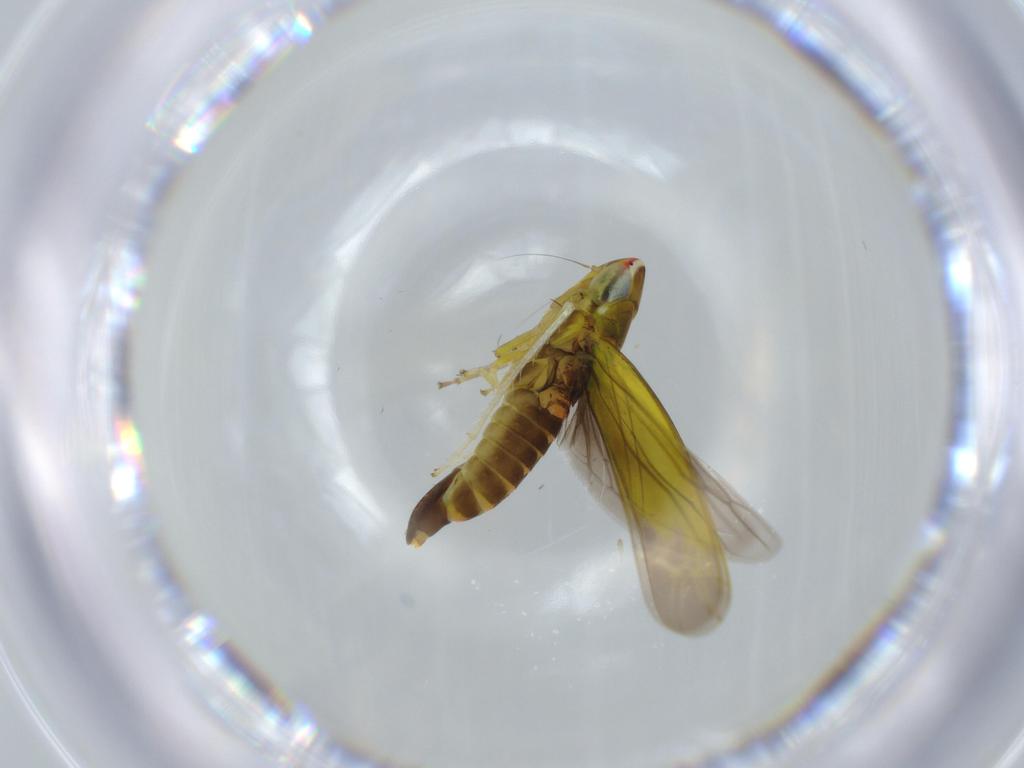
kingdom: Animalia
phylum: Arthropoda
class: Insecta
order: Hemiptera
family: Cicadellidae
